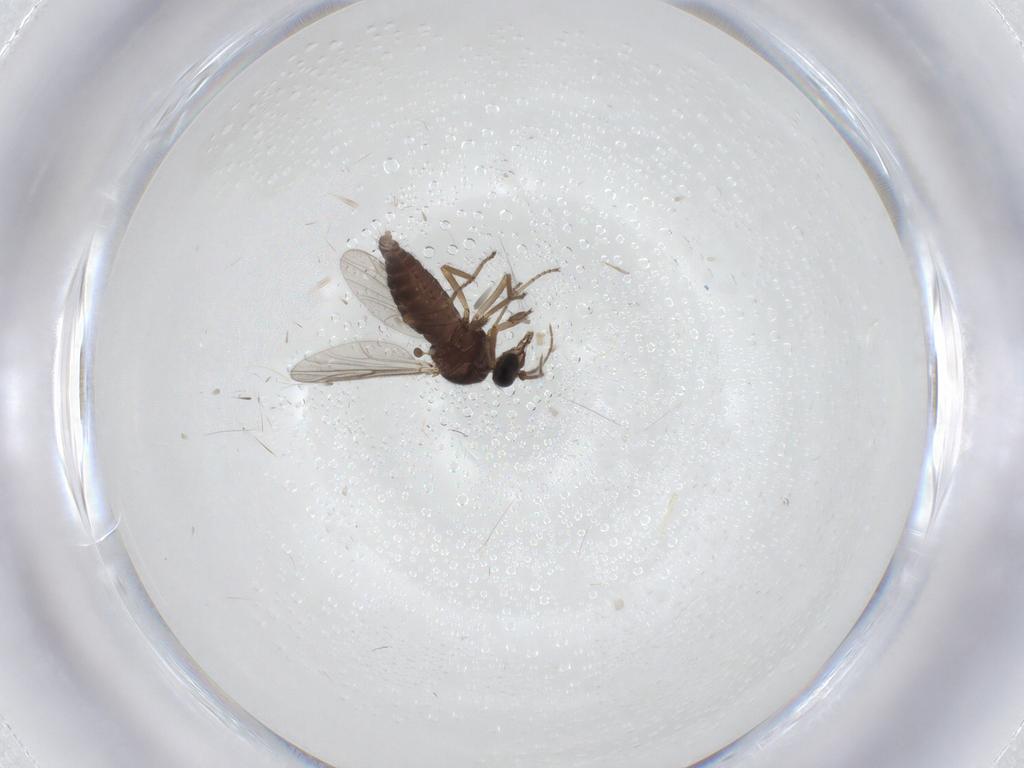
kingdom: Animalia
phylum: Arthropoda
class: Insecta
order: Diptera
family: Ceratopogonidae
